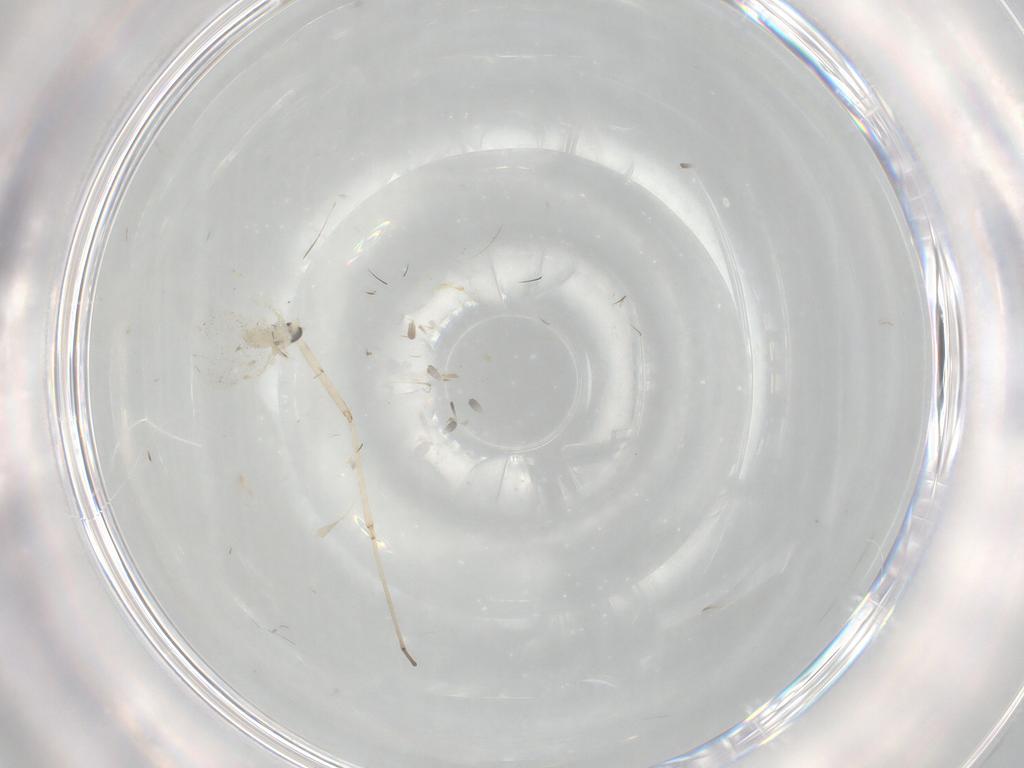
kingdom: Animalia
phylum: Arthropoda
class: Insecta
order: Diptera
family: Cecidomyiidae
